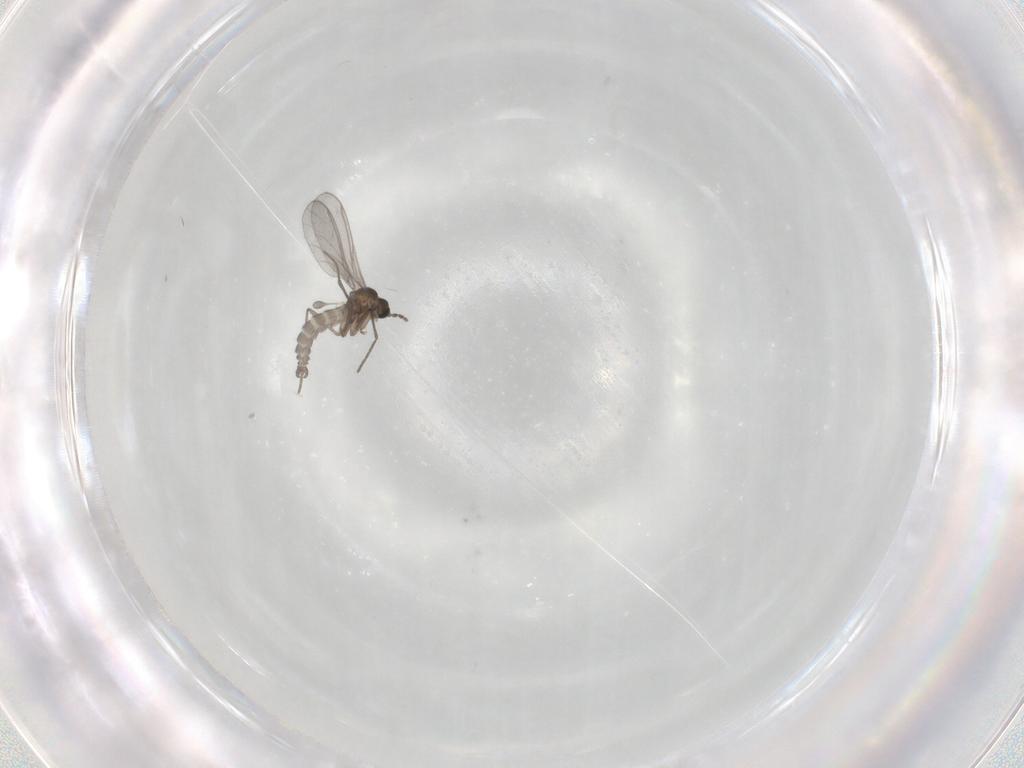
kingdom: Animalia
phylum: Arthropoda
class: Insecta
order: Diptera
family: Sciaridae
